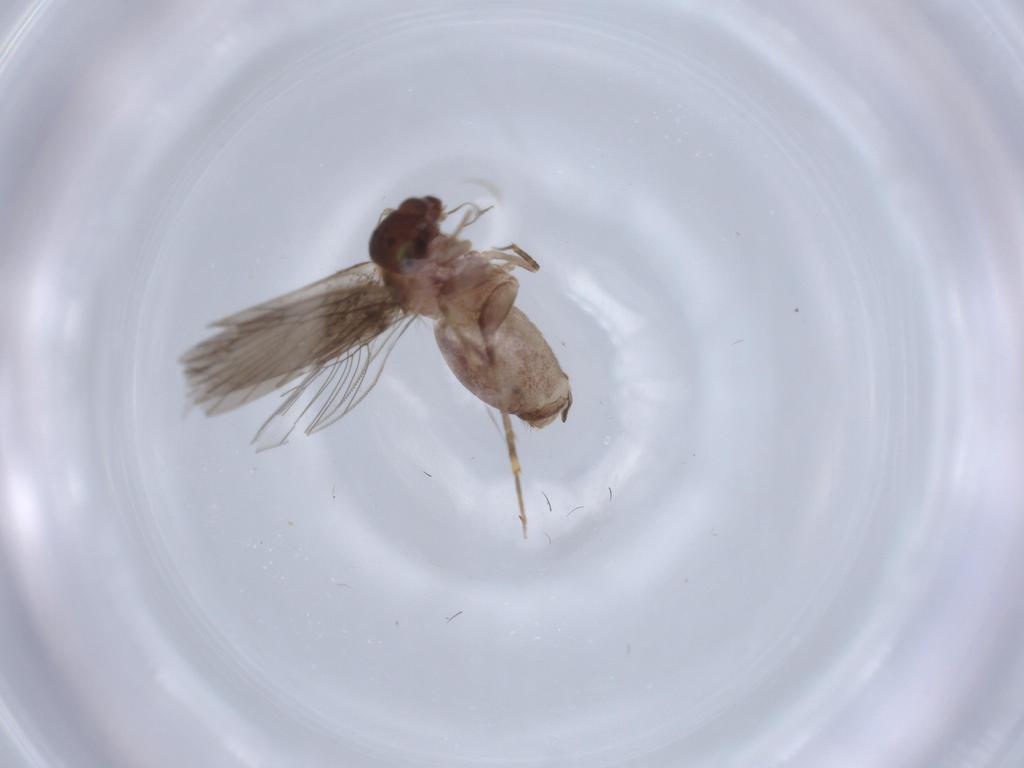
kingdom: Animalia
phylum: Arthropoda
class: Insecta
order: Psocodea
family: Lepidopsocidae
